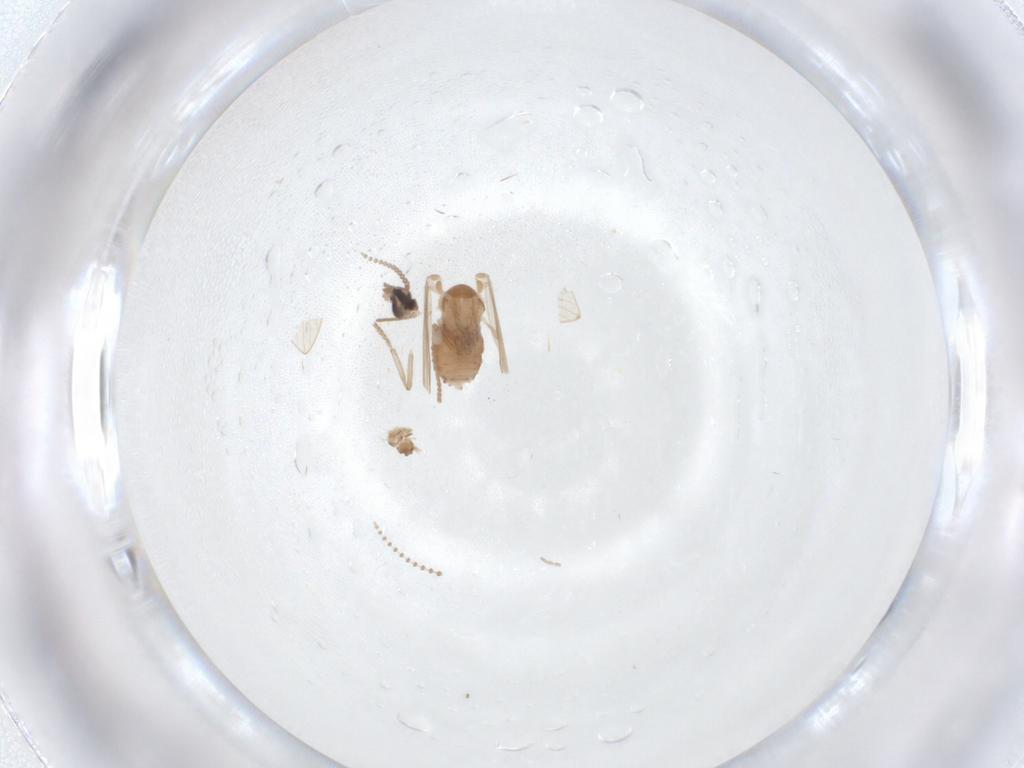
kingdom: Animalia
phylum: Arthropoda
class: Insecta
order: Diptera
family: Psychodidae
